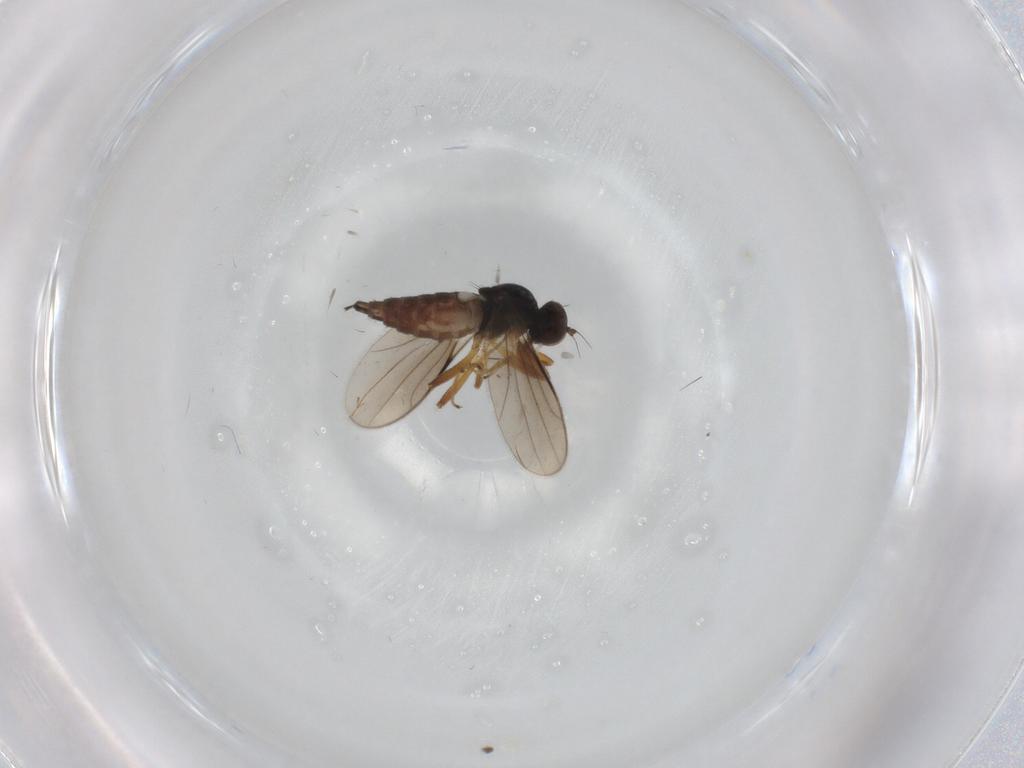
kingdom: Animalia
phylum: Arthropoda
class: Insecta
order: Diptera
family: Hybotidae
